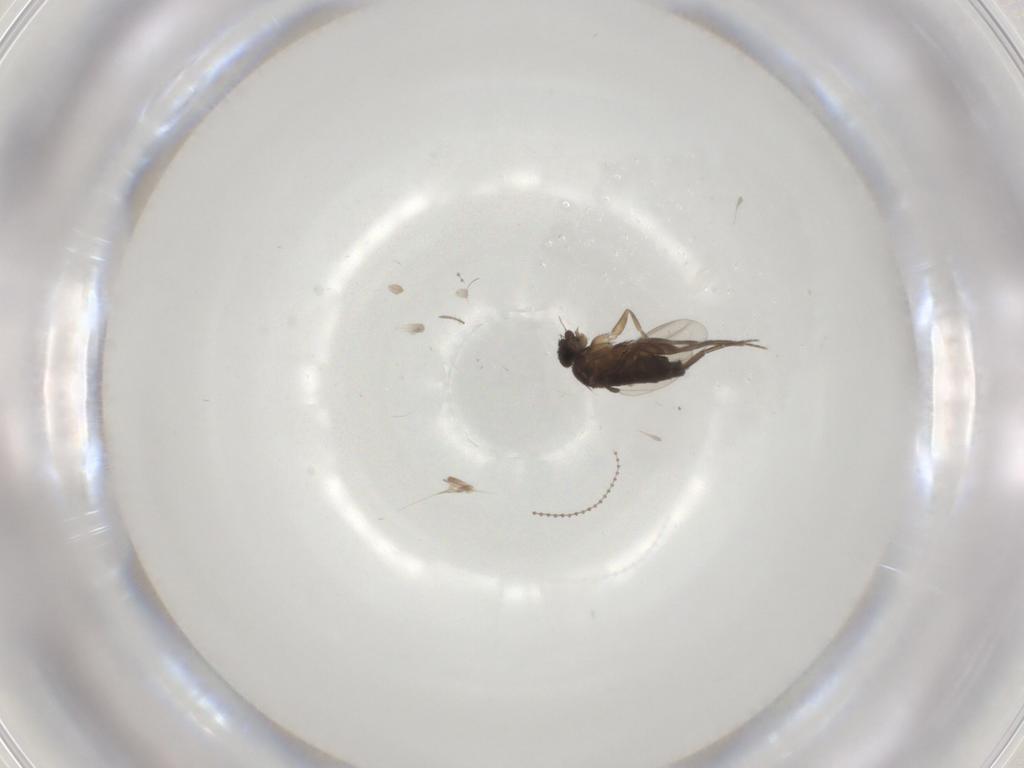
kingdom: Animalia
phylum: Arthropoda
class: Insecta
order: Diptera
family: Phoridae
